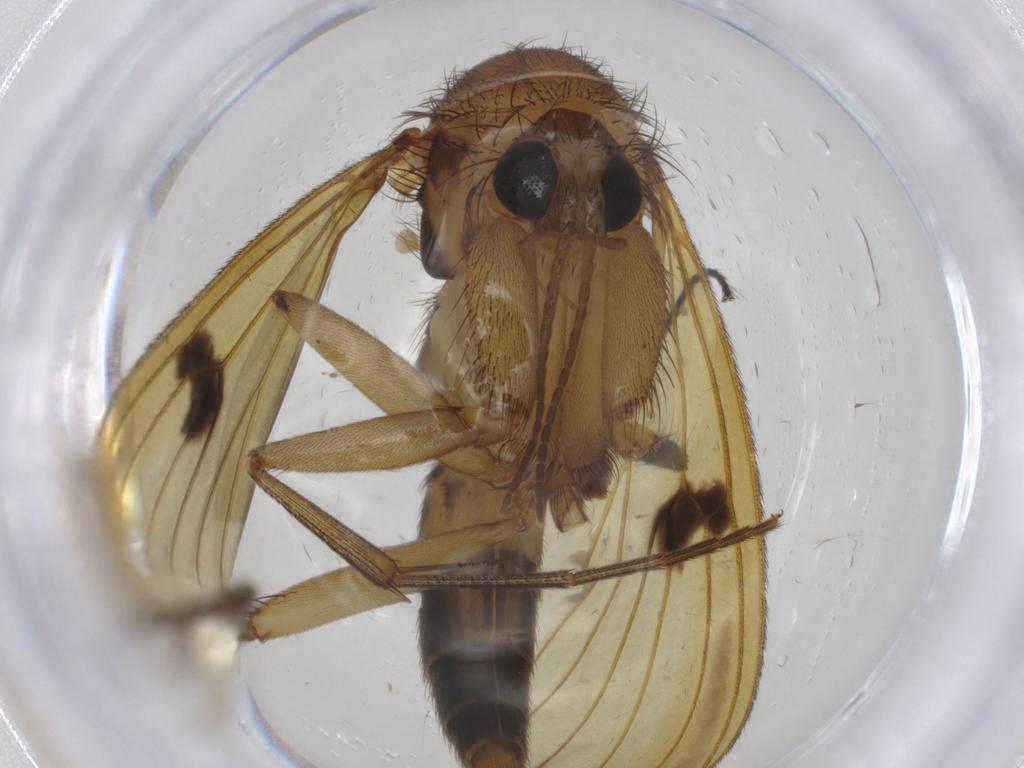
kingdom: Animalia
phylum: Arthropoda
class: Insecta
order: Diptera
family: Mycetophilidae
